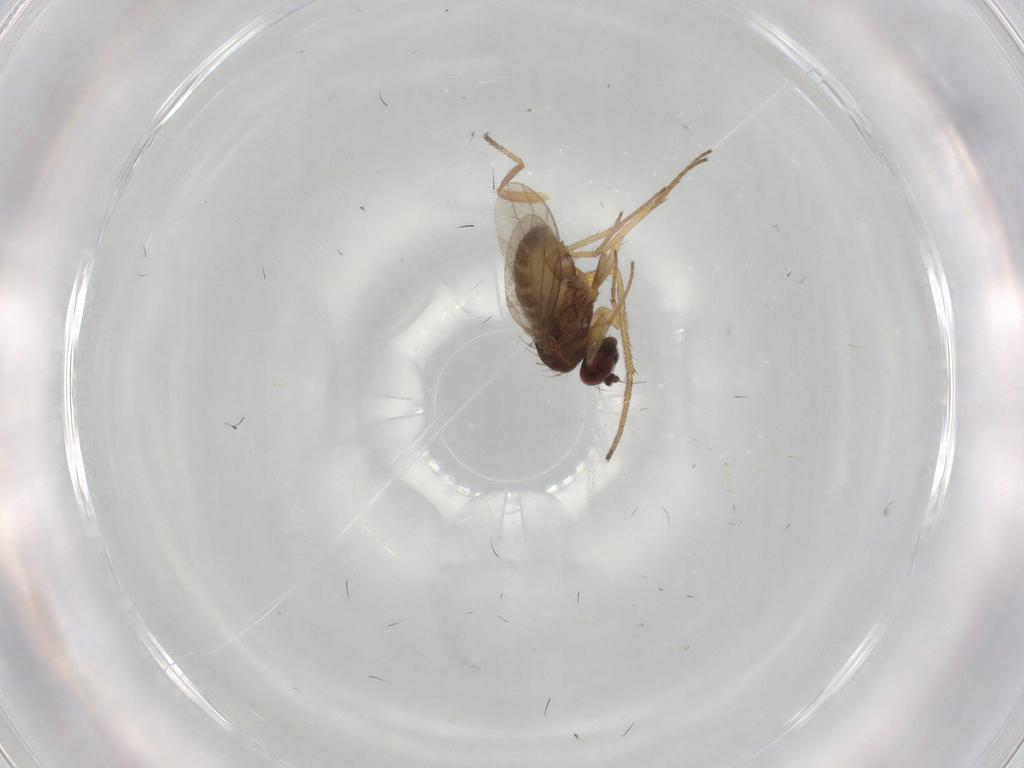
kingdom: Animalia
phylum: Arthropoda
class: Insecta
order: Diptera
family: Ulidiidae
